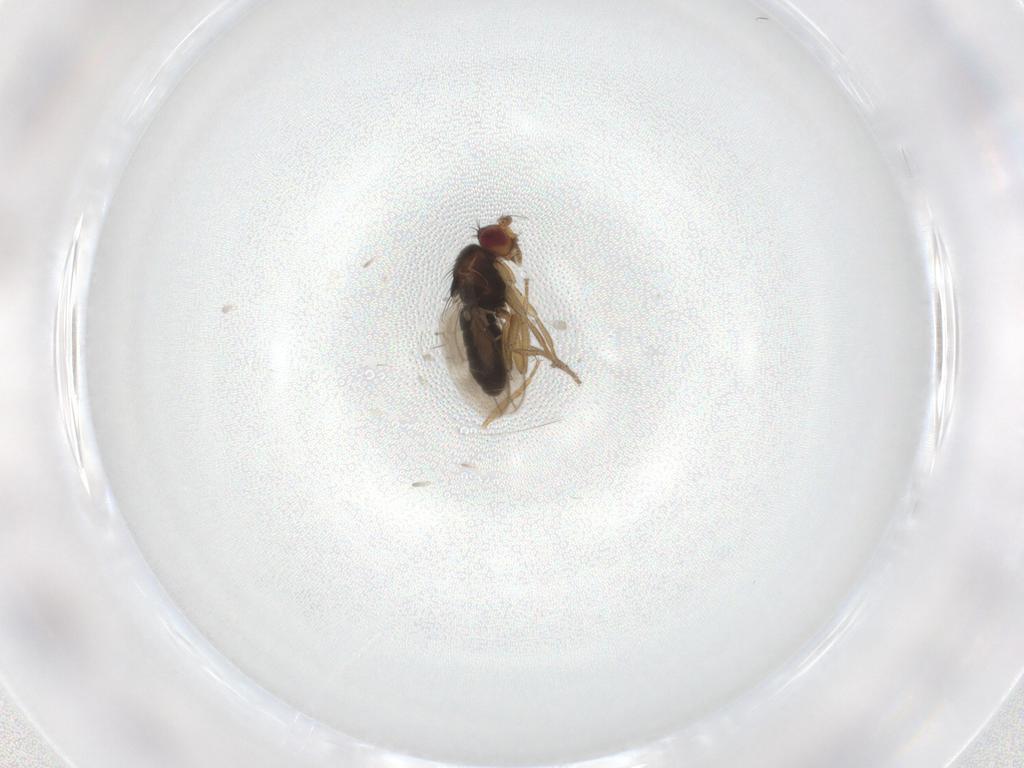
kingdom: Animalia
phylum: Arthropoda
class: Insecta
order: Diptera
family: Sphaeroceridae
